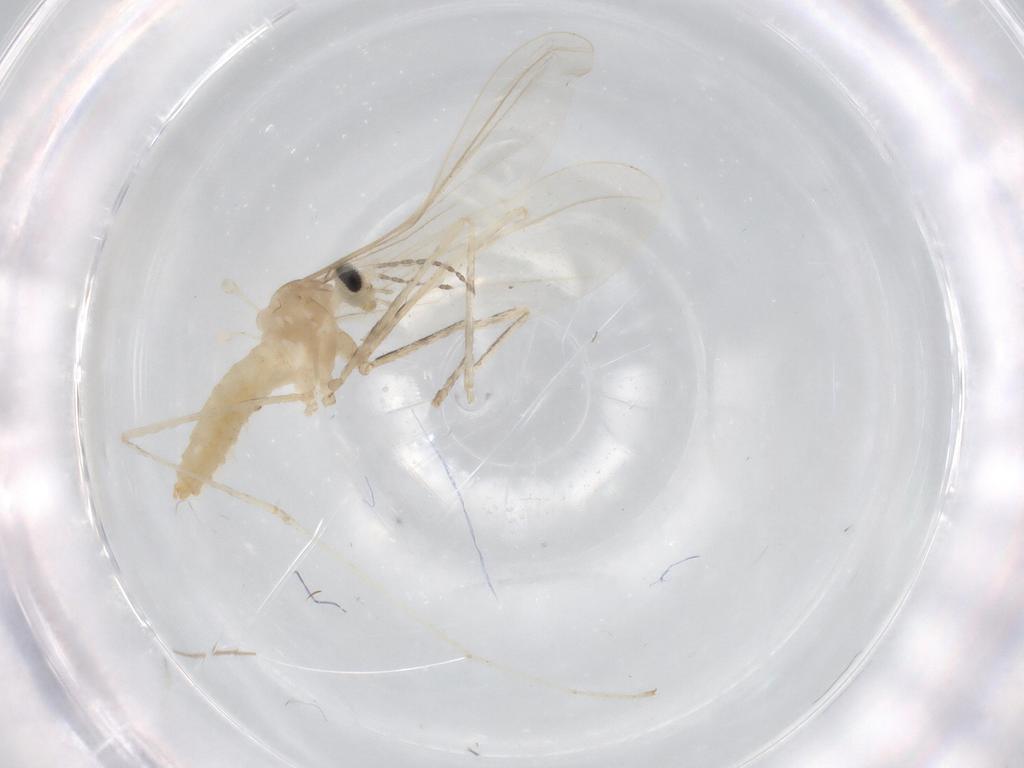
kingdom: Animalia
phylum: Arthropoda
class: Insecta
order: Diptera
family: Cecidomyiidae
